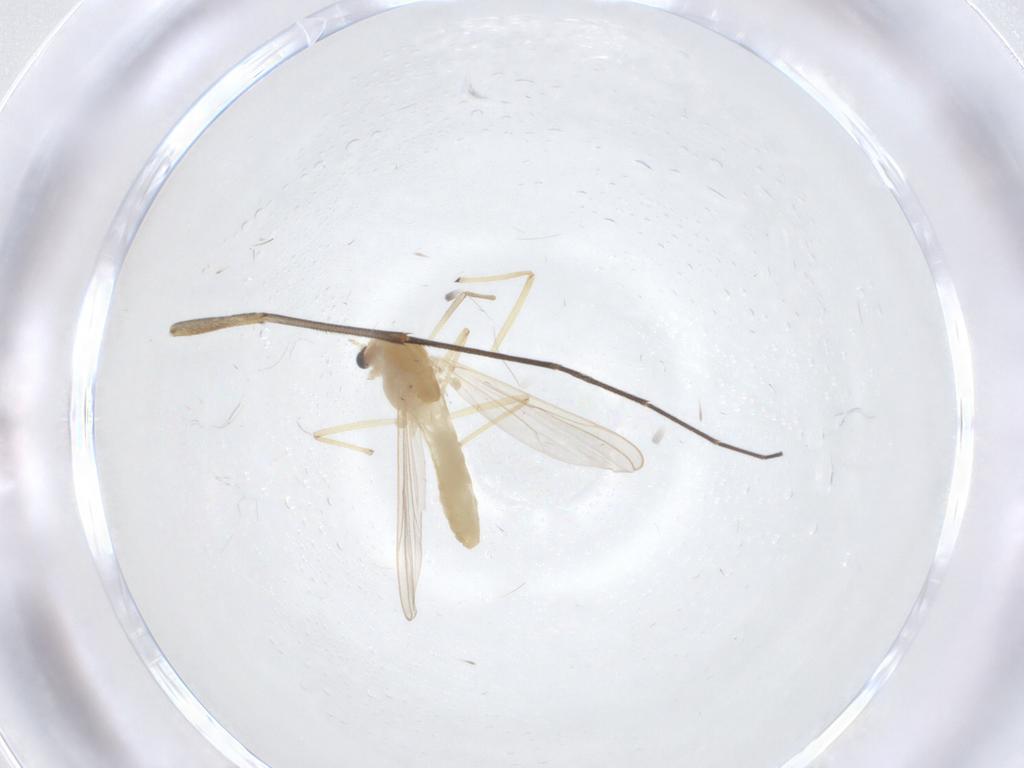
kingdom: Animalia
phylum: Arthropoda
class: Insecta
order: Diptera
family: Chironomidae
